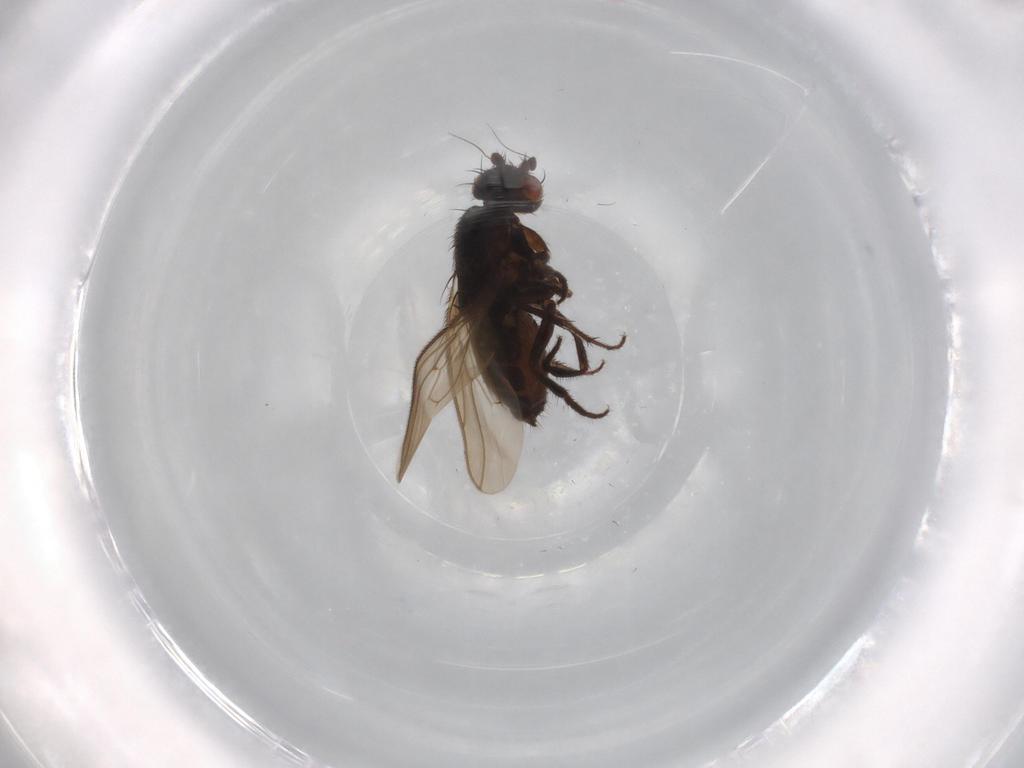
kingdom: Animalia
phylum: Arthropoda
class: Insecta
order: Diptera
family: Sphaeroceridae
